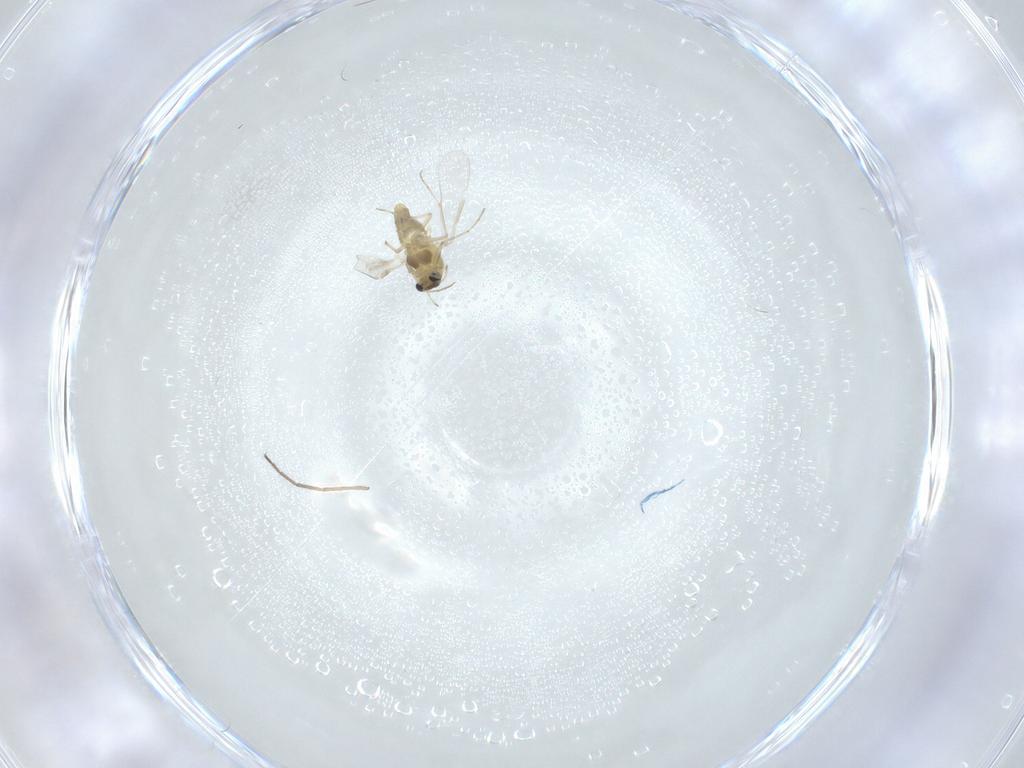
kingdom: Animalia
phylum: Arthropoda
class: Insecta
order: Diptera
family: Chironomidae
